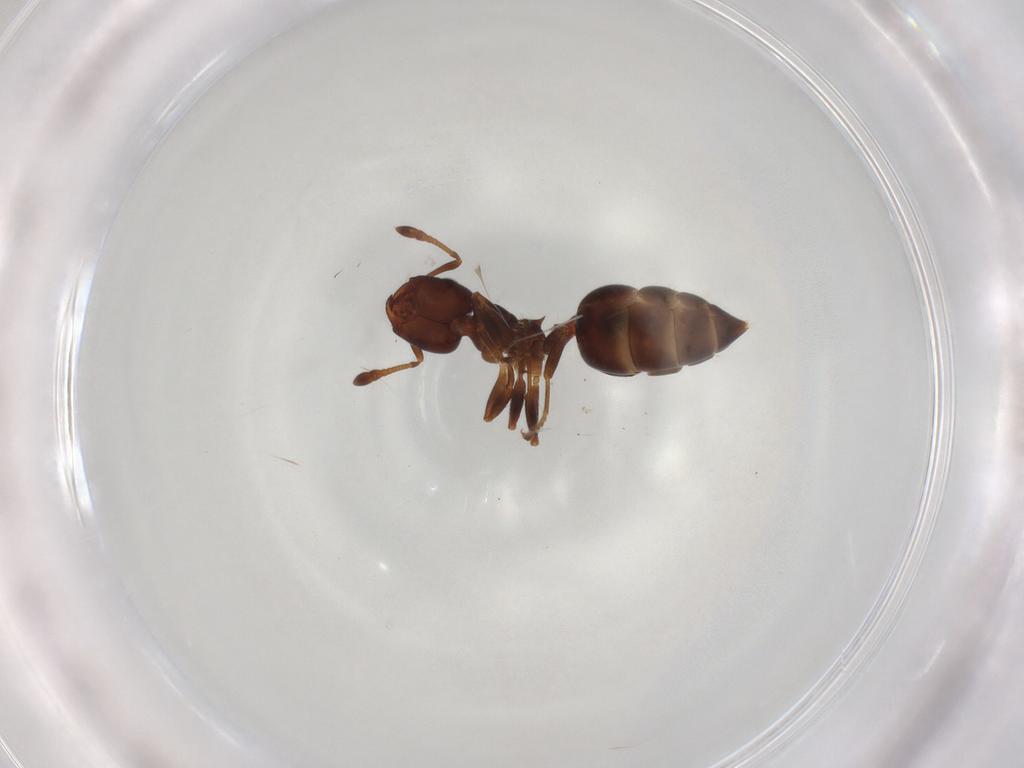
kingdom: Animalia
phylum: Arthropoda
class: Insecta
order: Hymenoptera
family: Formicidae
